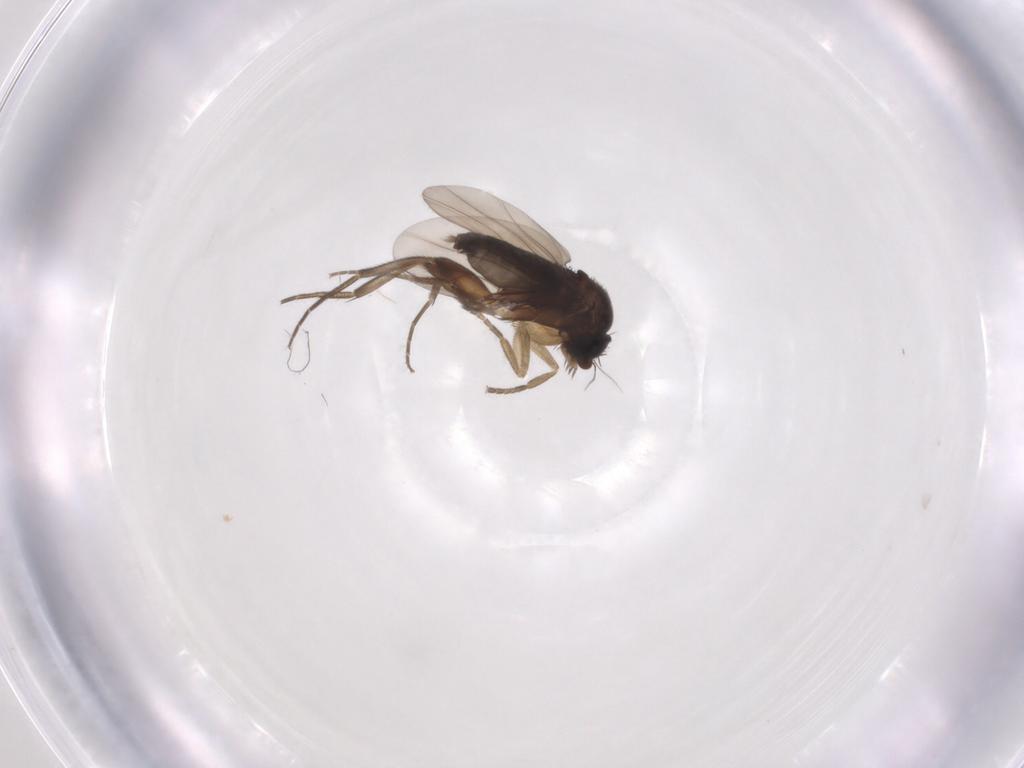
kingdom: Animalia
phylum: Arthropoda
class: Insecta
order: Diptera
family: Phoridae
